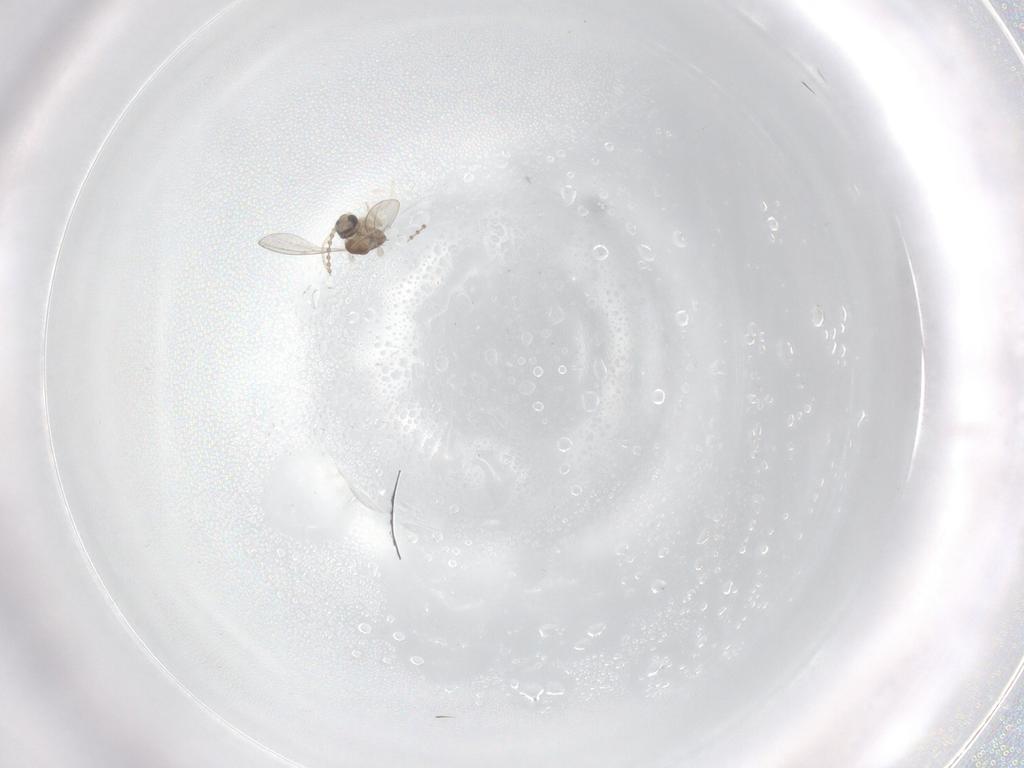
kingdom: Animalia
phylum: Arthropoda
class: Insecta
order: Diptera
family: Cecidomyiidae
